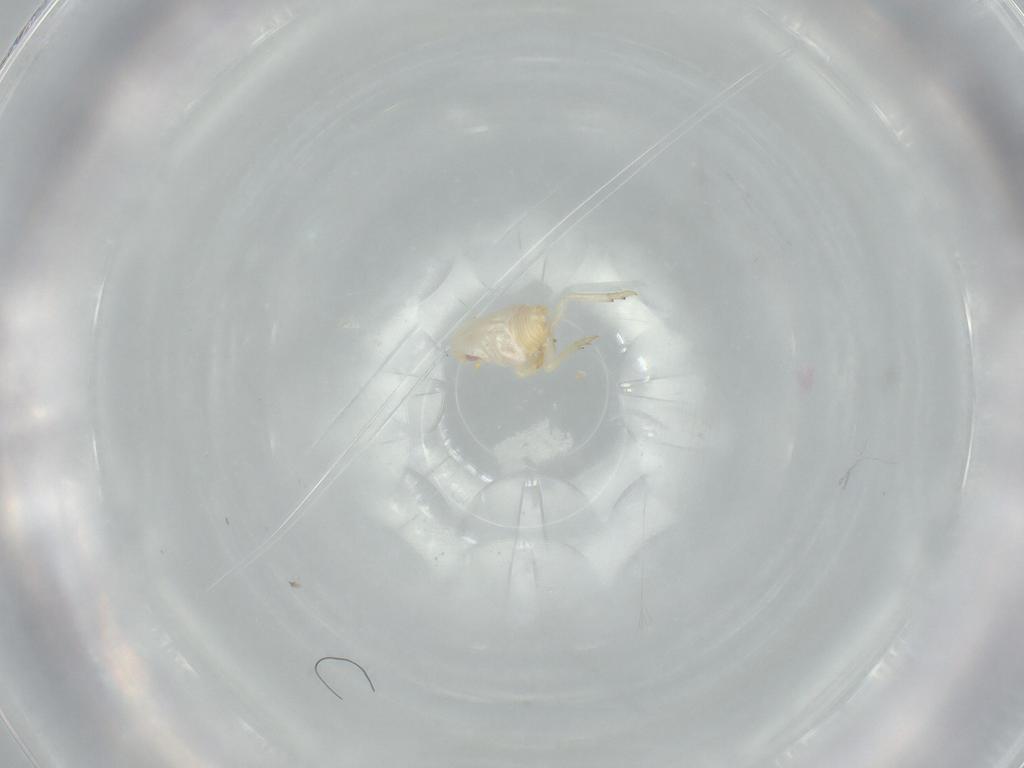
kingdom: Animalia
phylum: Arthropoda
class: Insecta
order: Hemiptera
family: Flatidae
